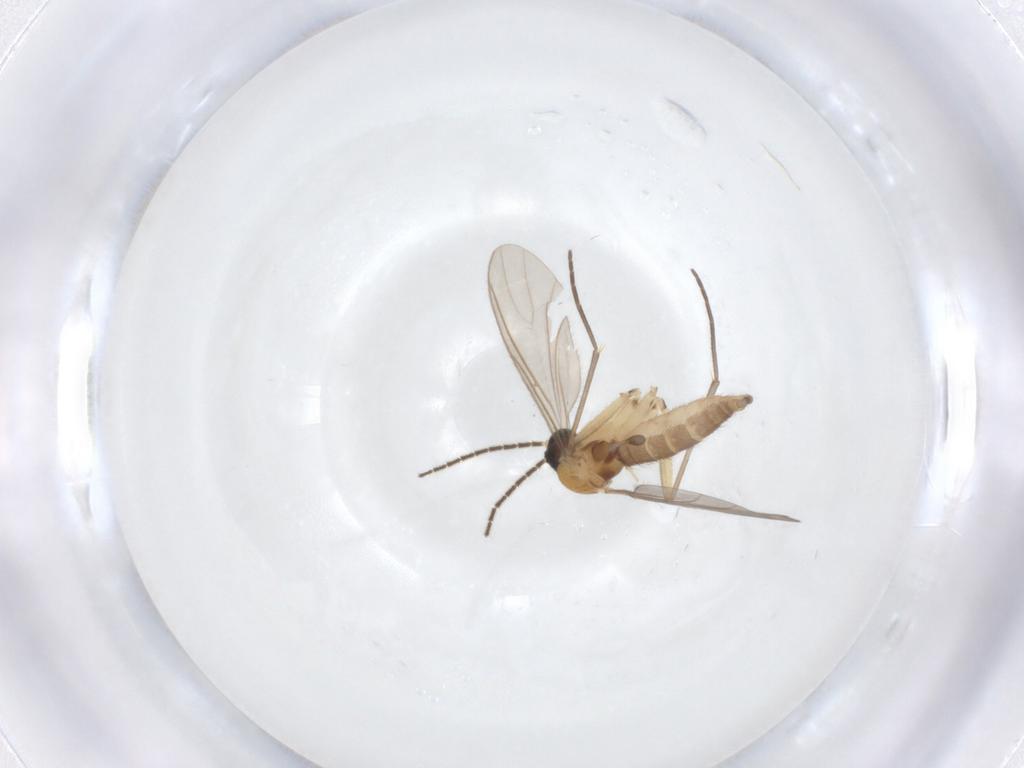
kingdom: Animalia
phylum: Arthropoda
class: Insecta
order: Diptera
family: Sciaridae
